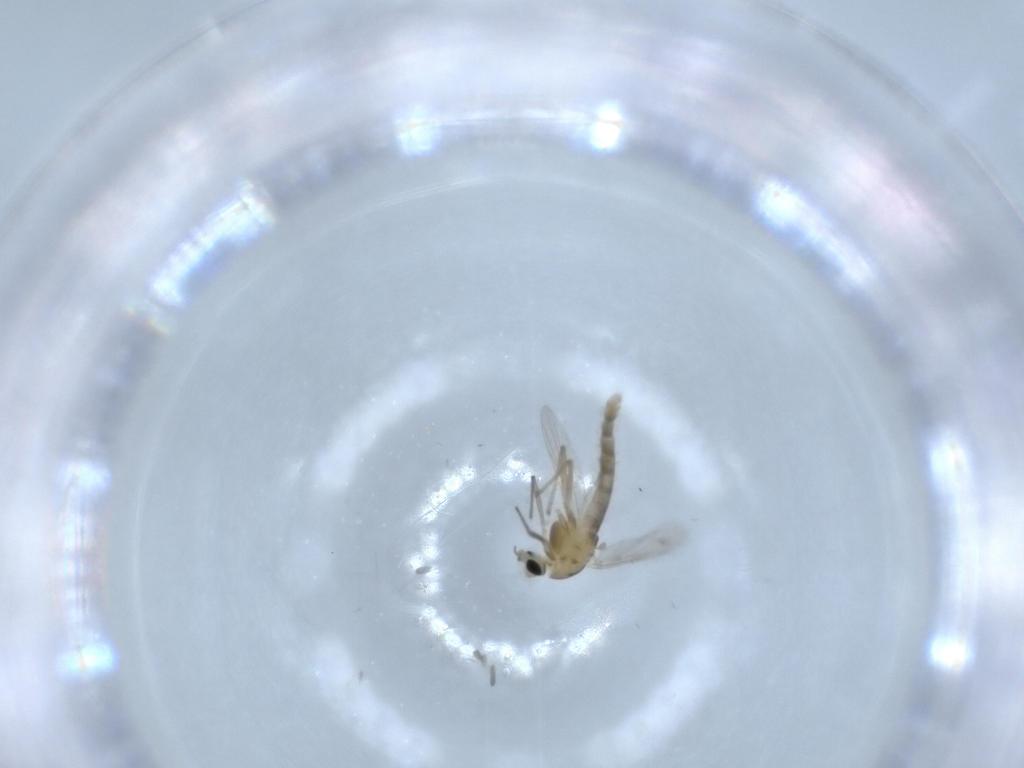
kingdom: Animalia
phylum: Arthropoda
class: Insecta
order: Diptera
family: Chironomidae
